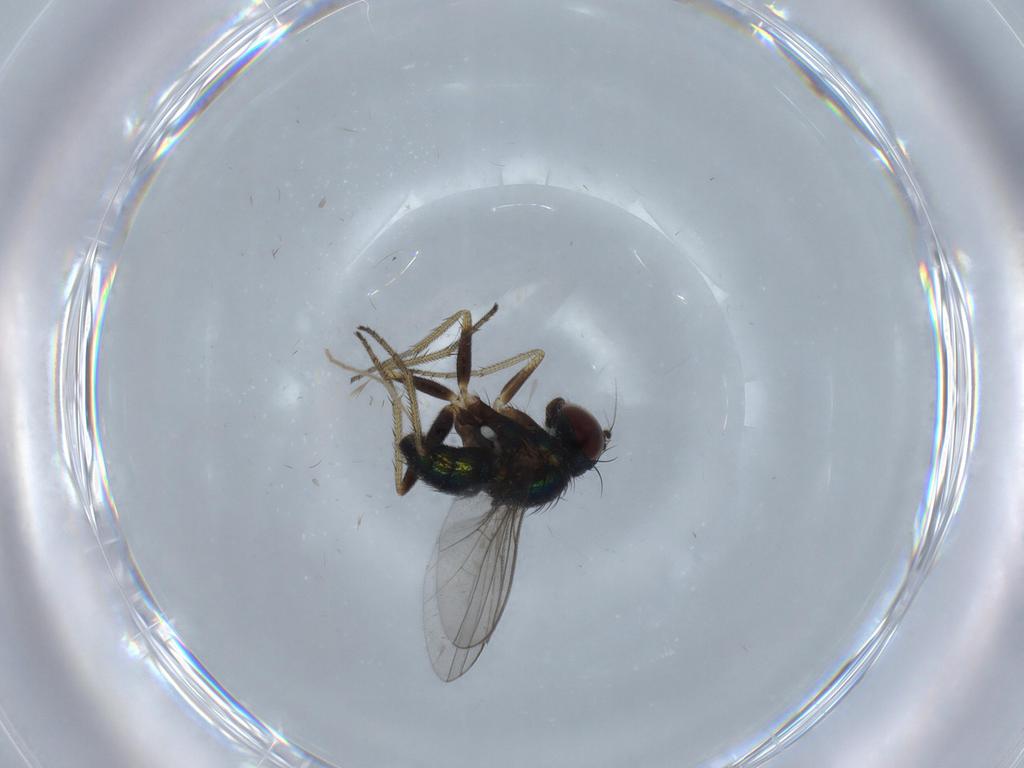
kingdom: Animalia
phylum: Arthropoda
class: Insecta
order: Diptera
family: Chironomidae
